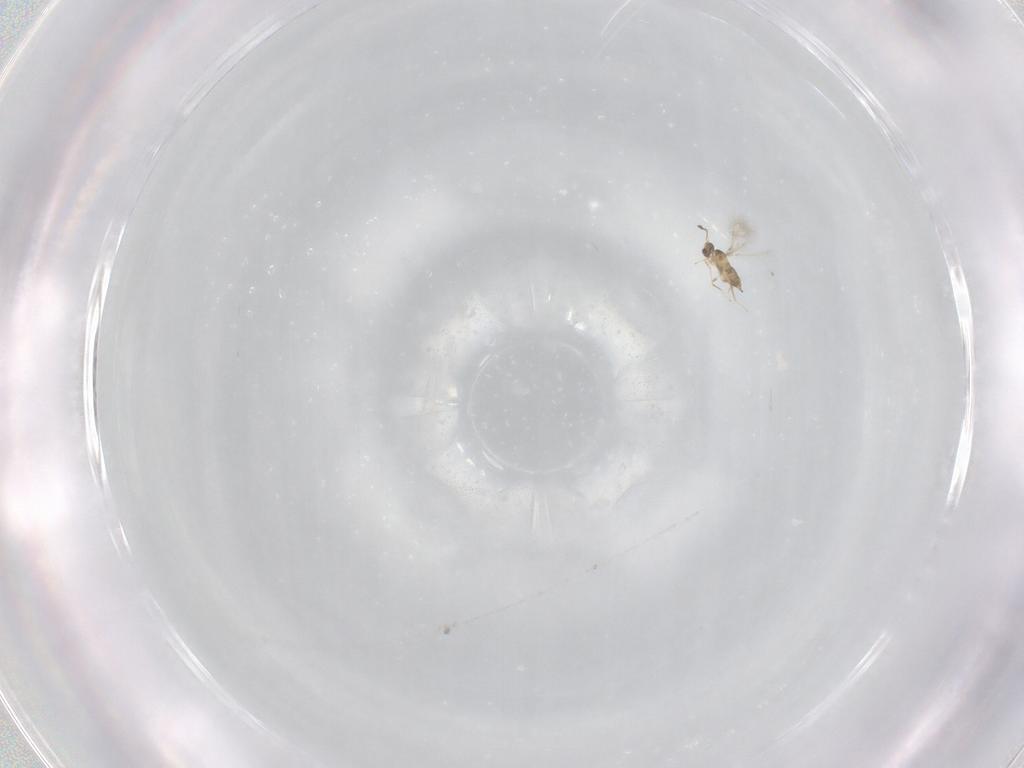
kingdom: Animalia
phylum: Arthropoda
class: Insecta
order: Hymenoptera
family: Mymaridae
